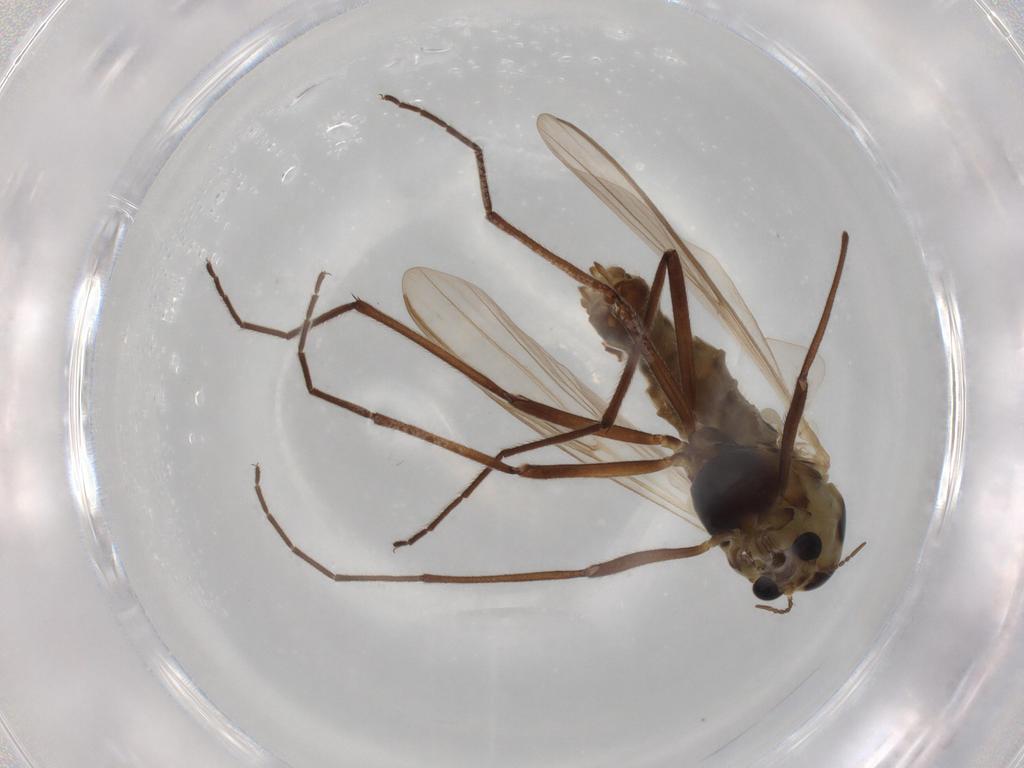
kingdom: Animalia
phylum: Arthropoda
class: Insecta
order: Diptera
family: Anthomyiidae
